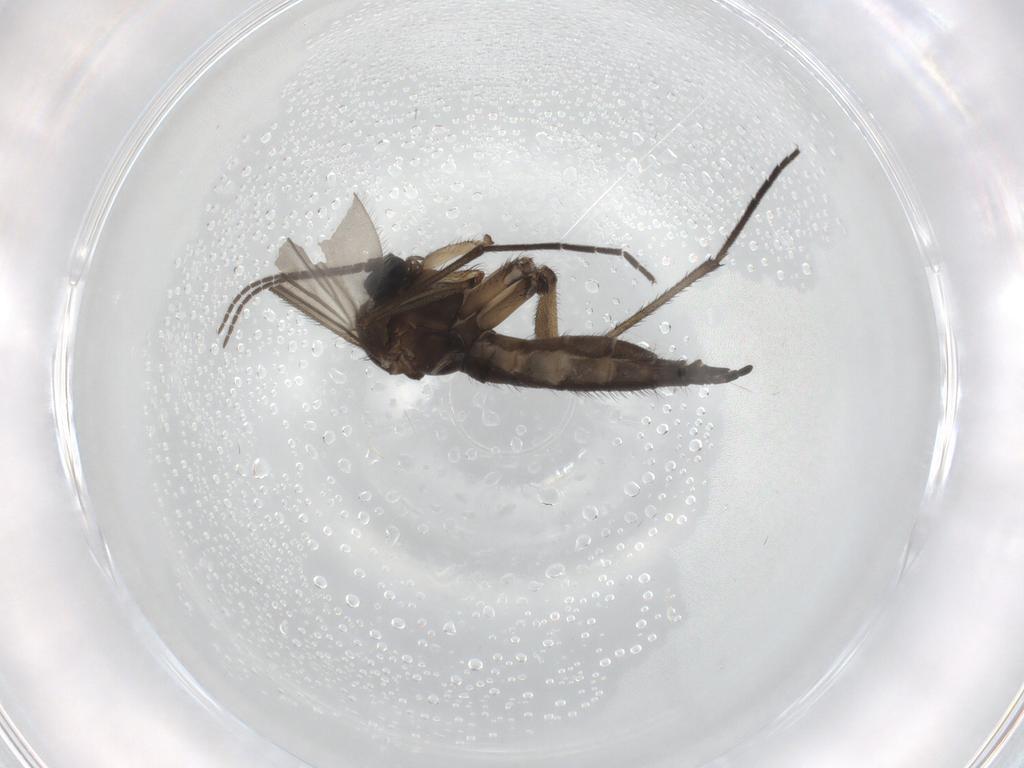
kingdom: Animalia
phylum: Arthropoda
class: Insecta
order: Diptera
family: Sciaridae
